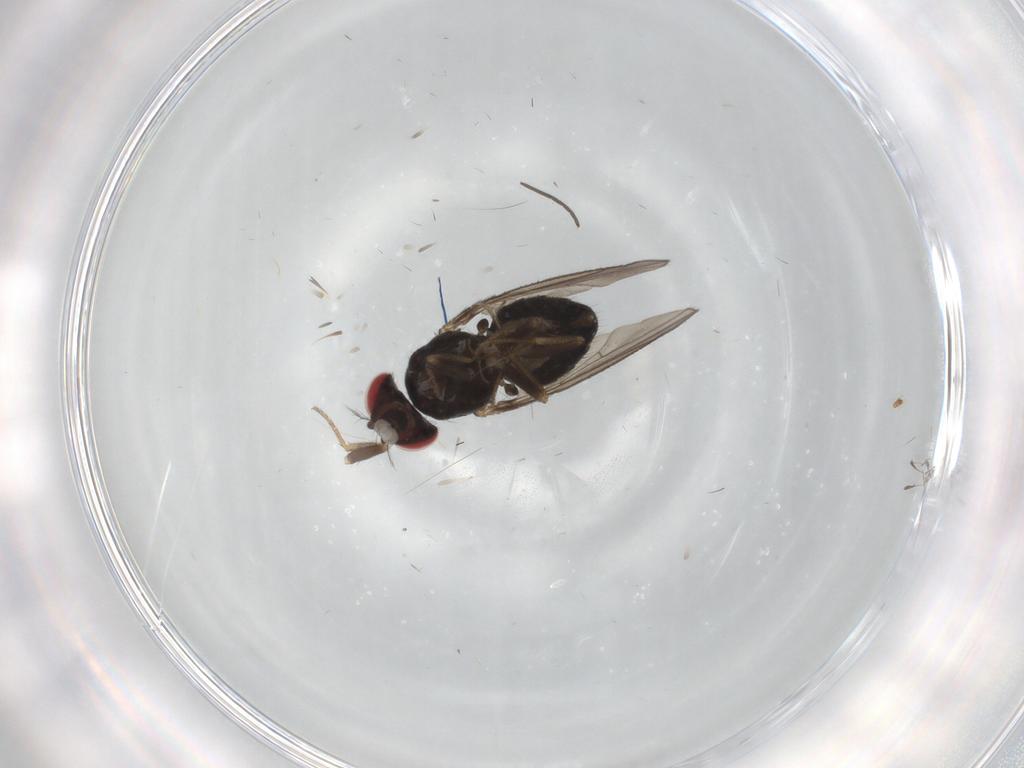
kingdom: Animalia
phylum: Arthropoda
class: Insecta
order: Diptera
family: Drosophilidae
